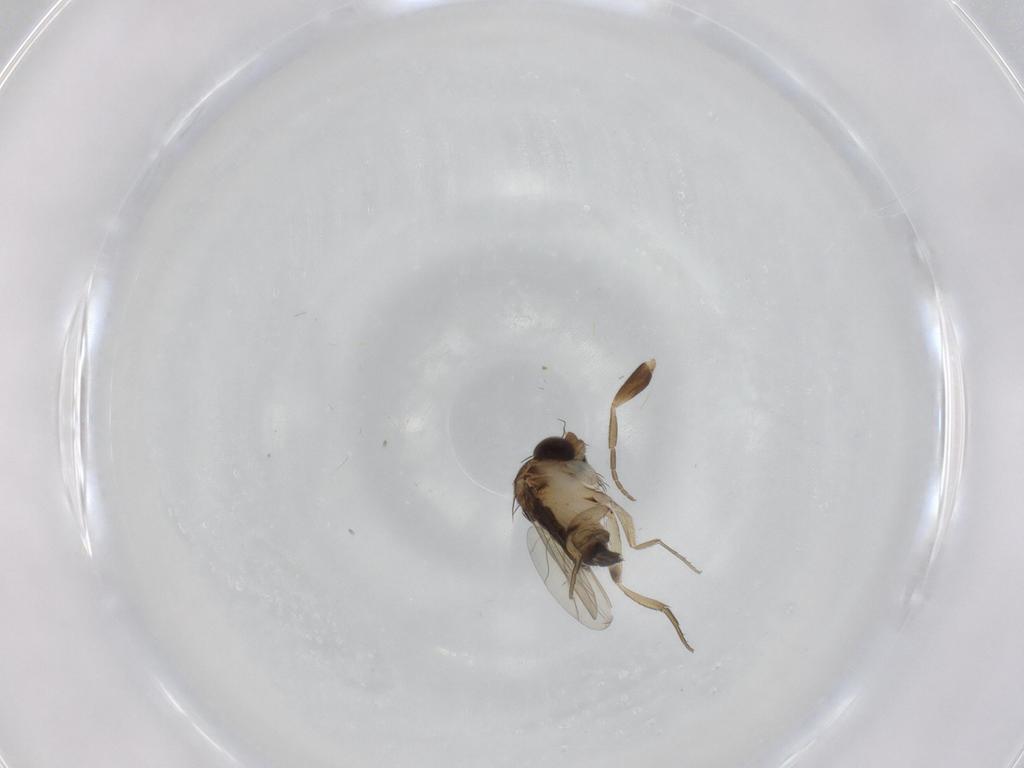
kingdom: Animalia
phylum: Arthropoda
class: Insecta
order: Diptera
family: Phoridae
